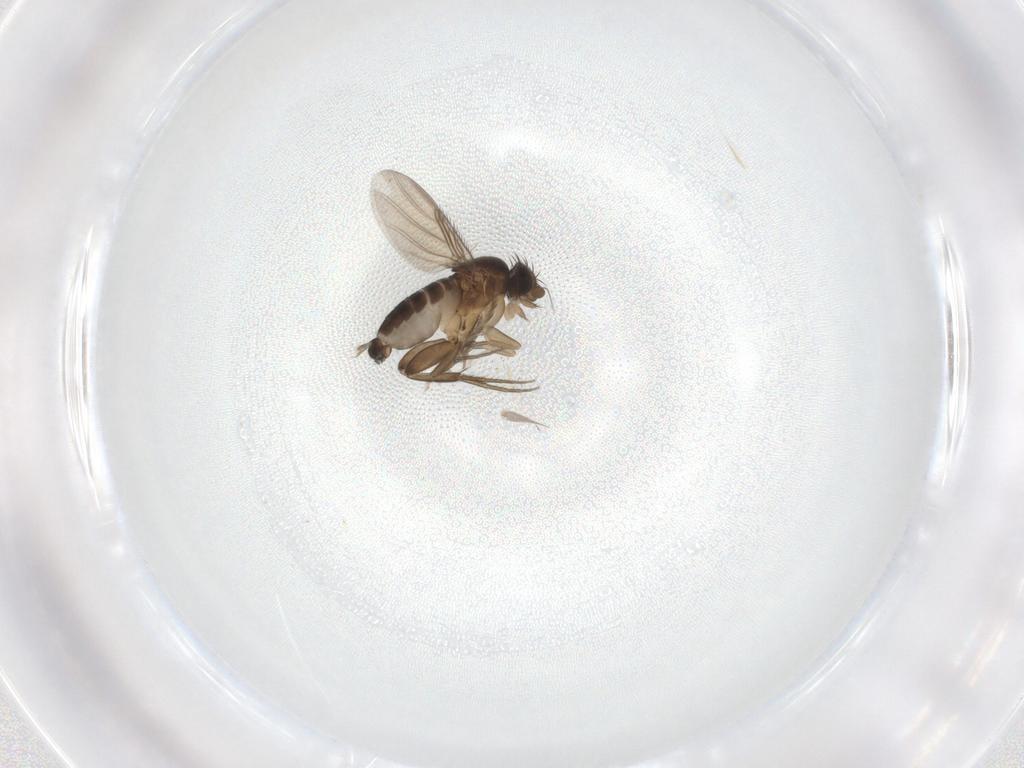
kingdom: Animalia
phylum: Arthropoda
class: Insecta
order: Diptera
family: Phoridae
